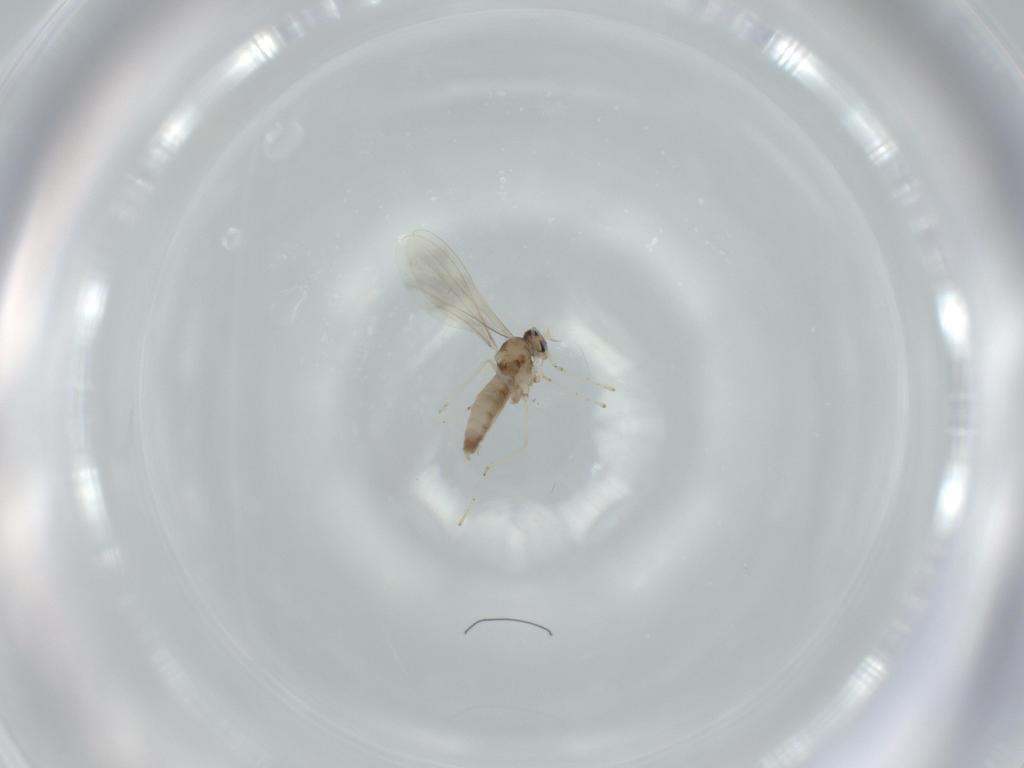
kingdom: Animalia
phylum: Arthropoda
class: Insecta
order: Diptera
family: Cecidomyiidae
